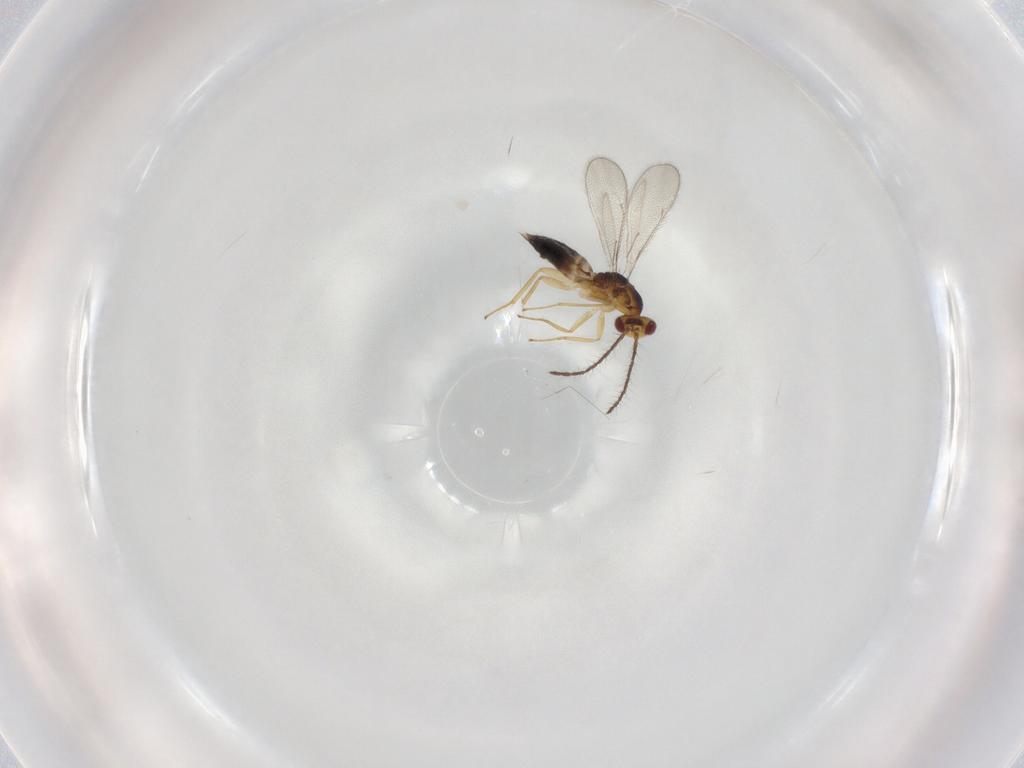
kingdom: Animalia
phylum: Arthropoda
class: Insecta
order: Hymenoptera
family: Eulophidae
